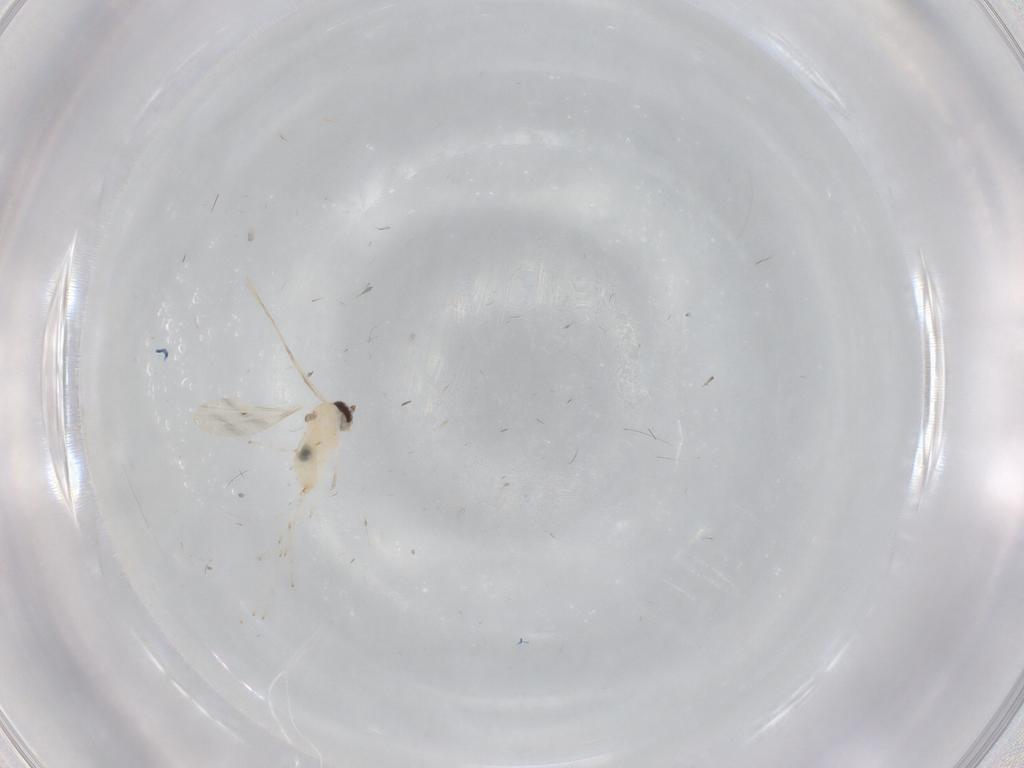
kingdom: Animalia
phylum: Arthropoda
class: Insecta
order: Diptera
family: Cecidomyiidae
